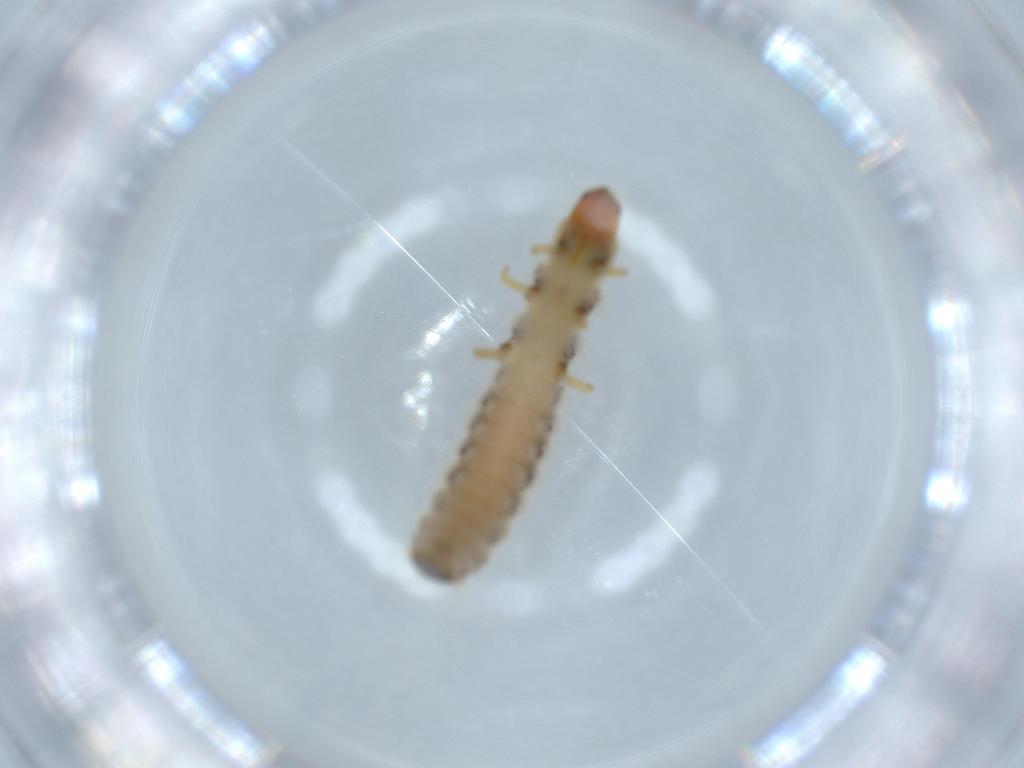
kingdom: Animalia
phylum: Arthropoda
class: Insecta
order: Coleoptera
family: Cleridae
